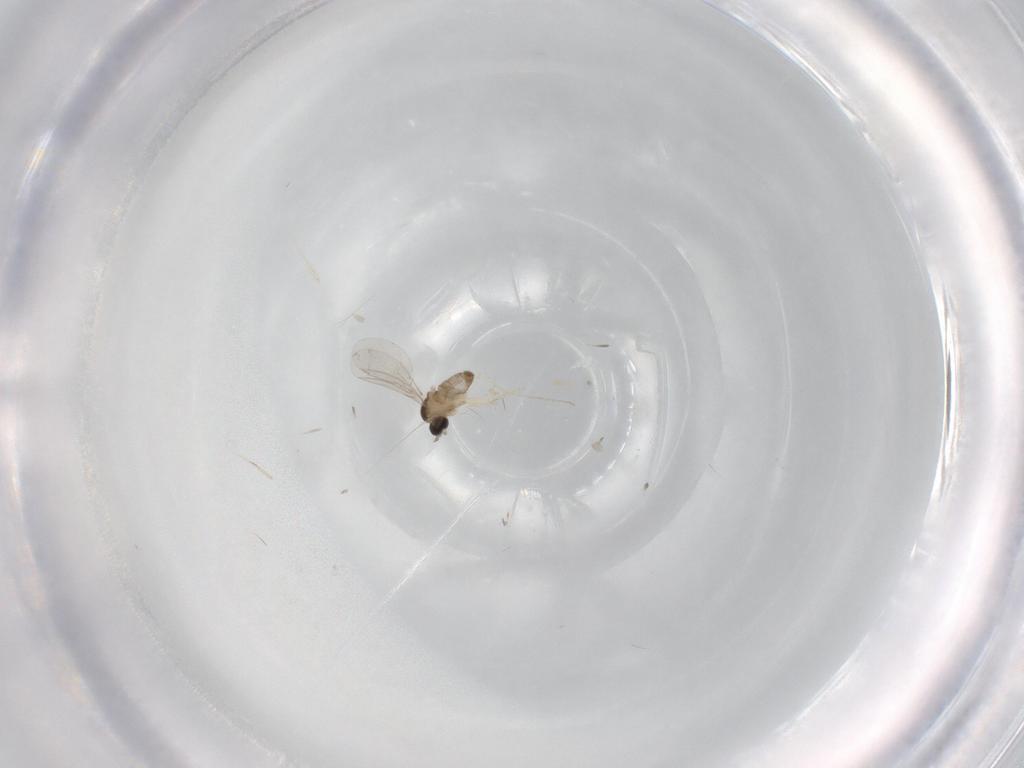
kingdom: Animalia
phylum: Arthropoda
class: Insecta
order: Diptera
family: Cecidomyiidae
